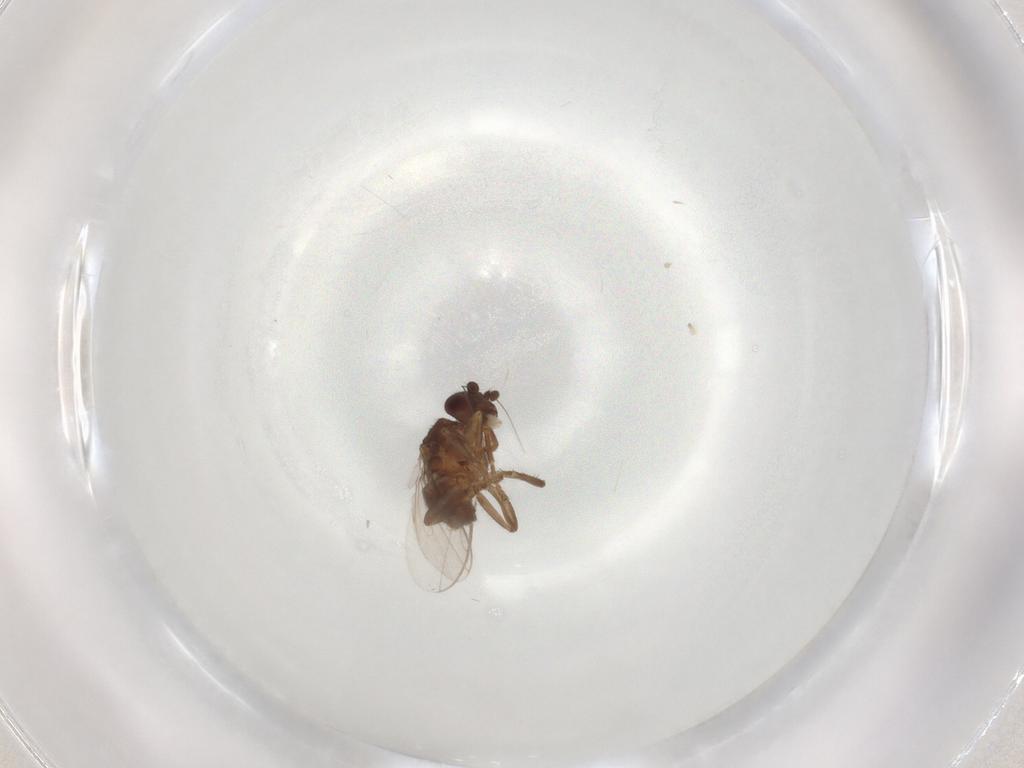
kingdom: Animalia
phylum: Arthropoda
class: Insecta
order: Diptera
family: Sphaeroceridae
